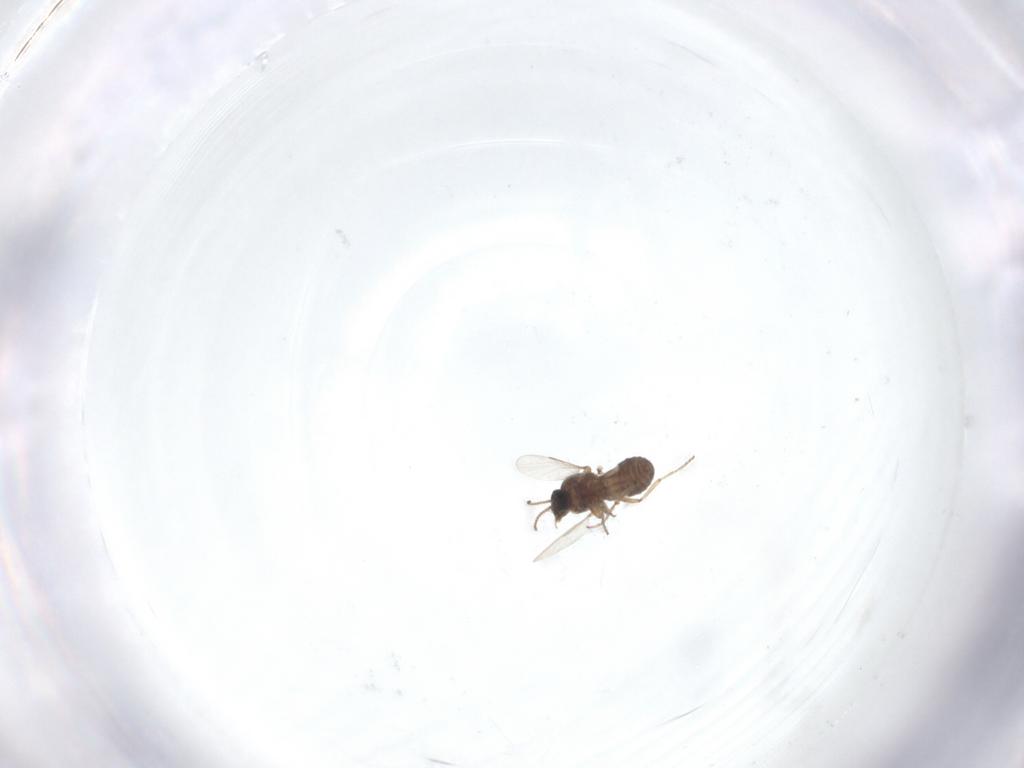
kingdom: Animalia
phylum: Arthropoda
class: Insecta
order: Diptera
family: Ceratopogonidae
